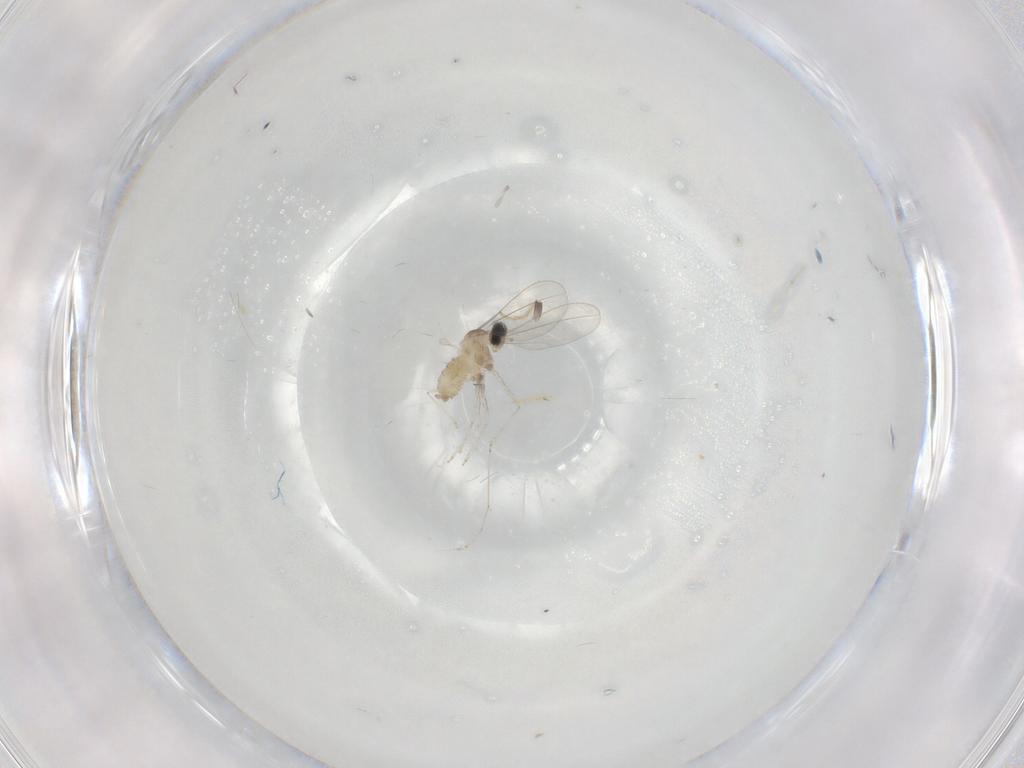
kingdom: Animalia
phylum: Arthropoda
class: Insecta
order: Diptera
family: Cecidomyiidae
